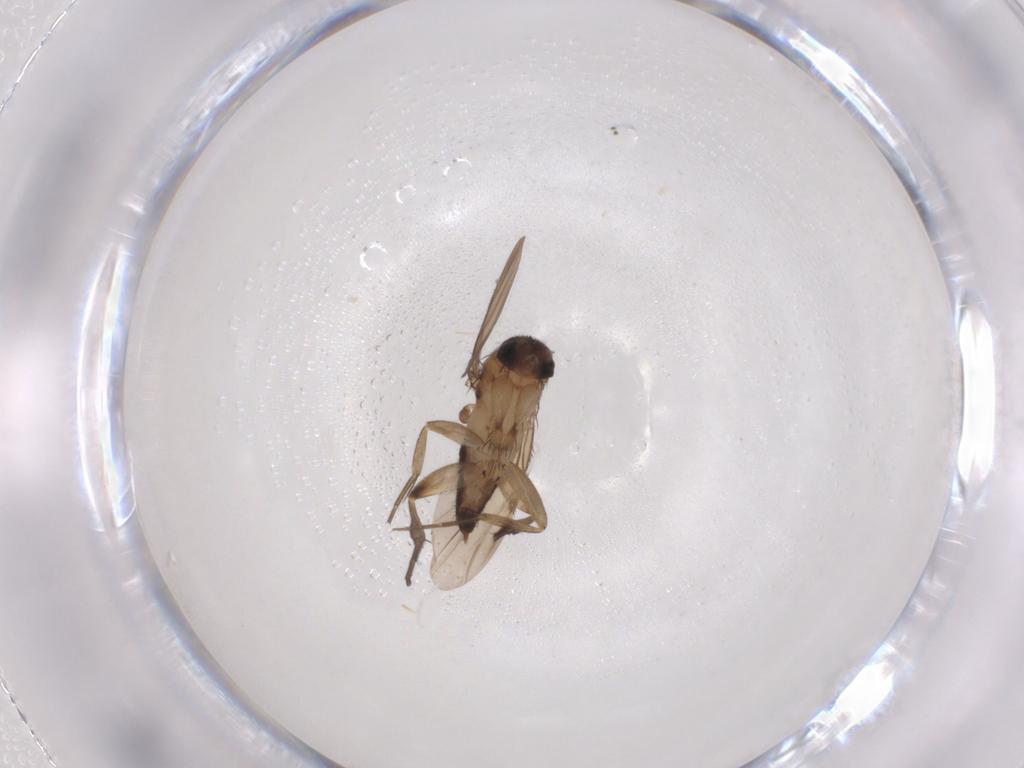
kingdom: Animalia
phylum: Arthropoda
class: Insecta
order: Diptera
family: Phoridae
